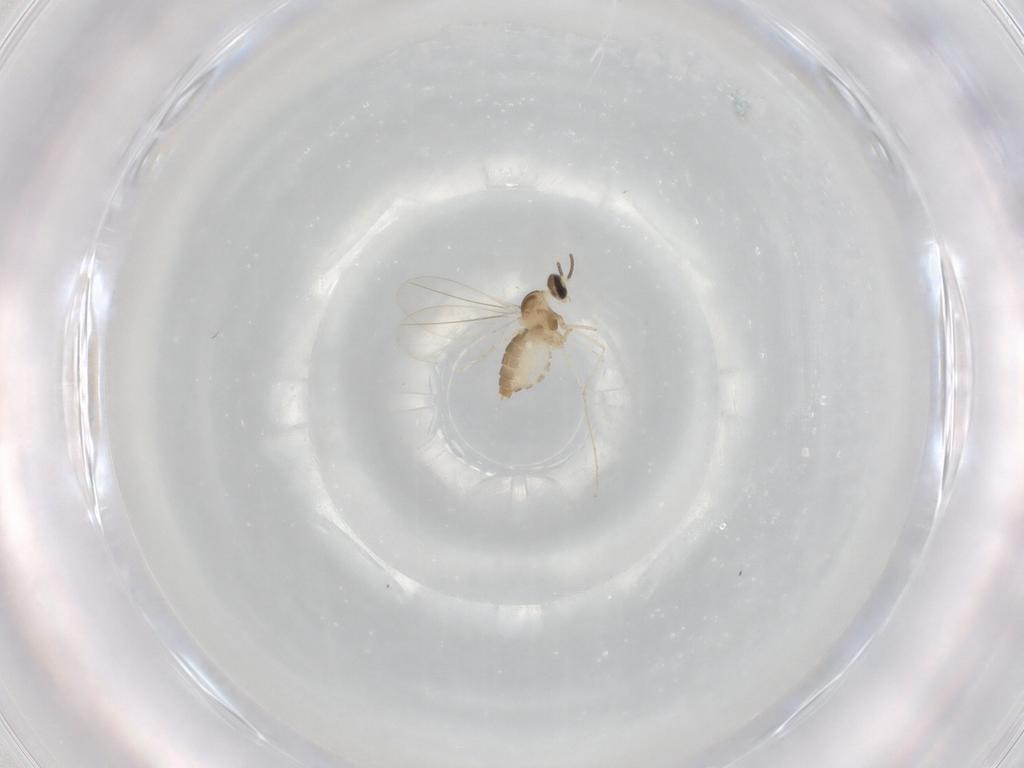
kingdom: Animalia
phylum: Arthropoda
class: Insecta
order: Diptera
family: Cecidomyiidae
